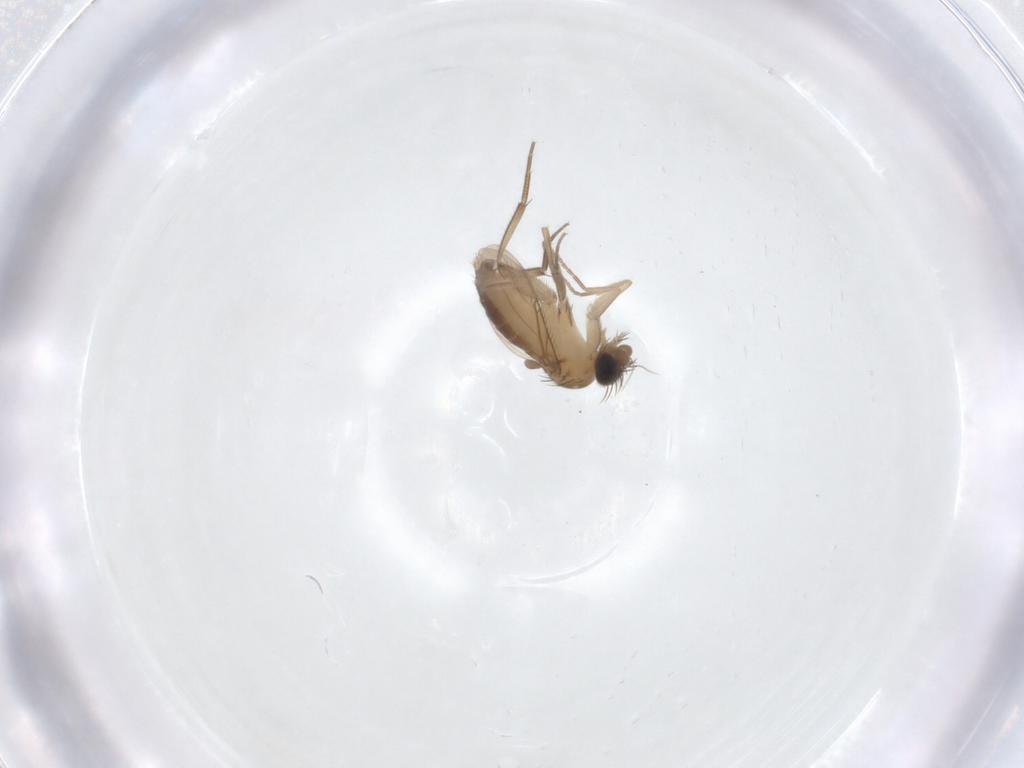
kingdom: Animalia
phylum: Arthropoda
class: Insecta
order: Diptera
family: Phoridae
